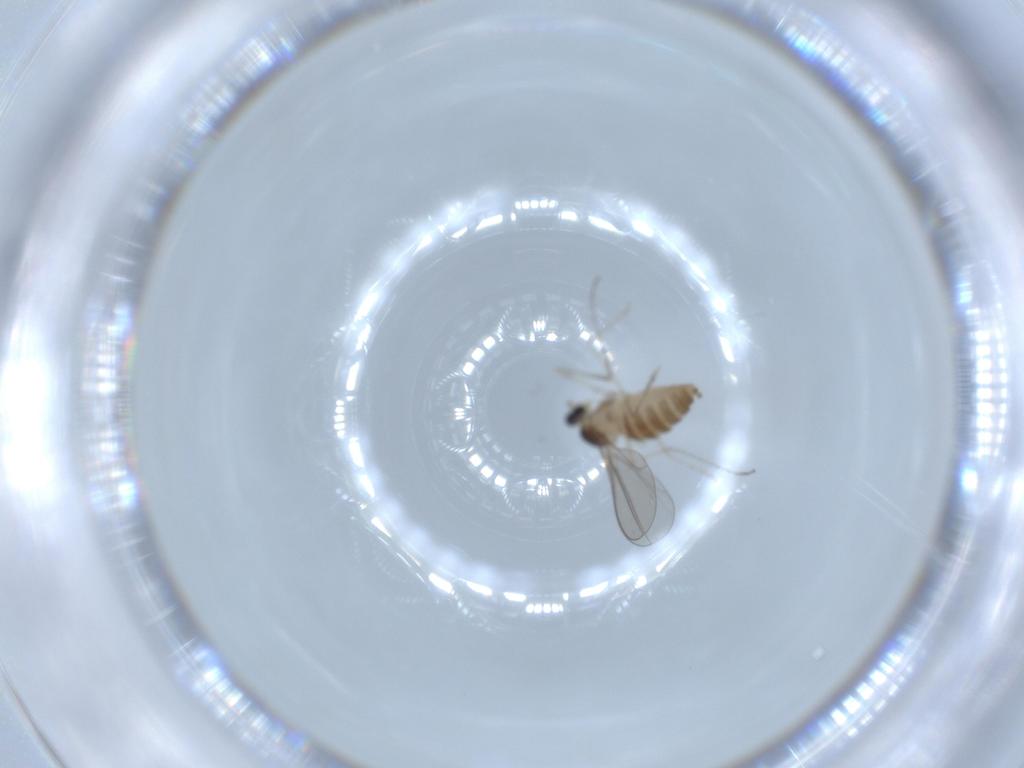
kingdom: Animalia
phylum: Arthropoda
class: Insecta
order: Diptera
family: Cecidomyiidae
